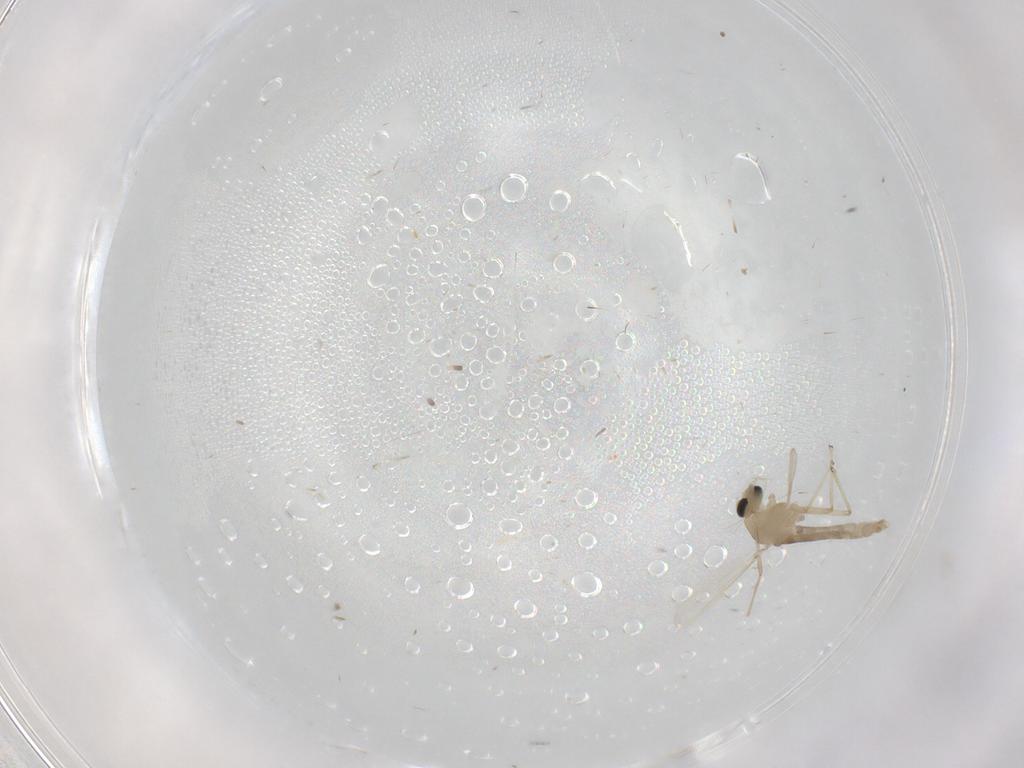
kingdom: Animalia
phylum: Arthropoda
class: Insecta
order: Diptera
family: Chironomidae
